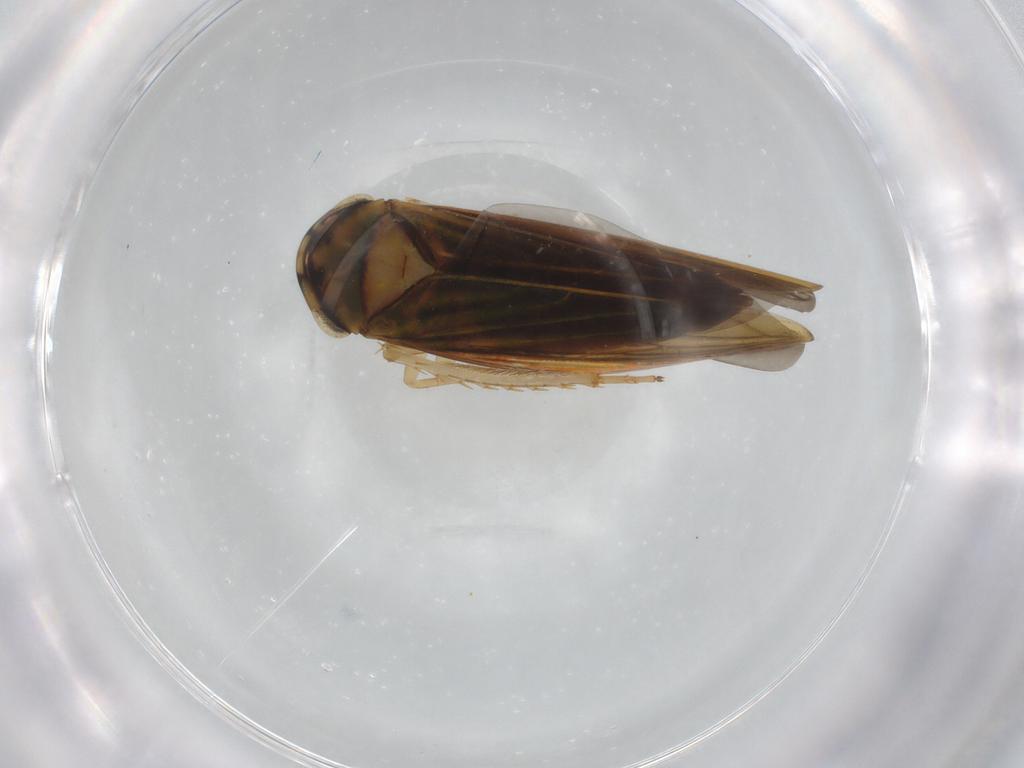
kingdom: Animalia
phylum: Arthropoda
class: Insecta
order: Hemiptera
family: Cicadellidae
